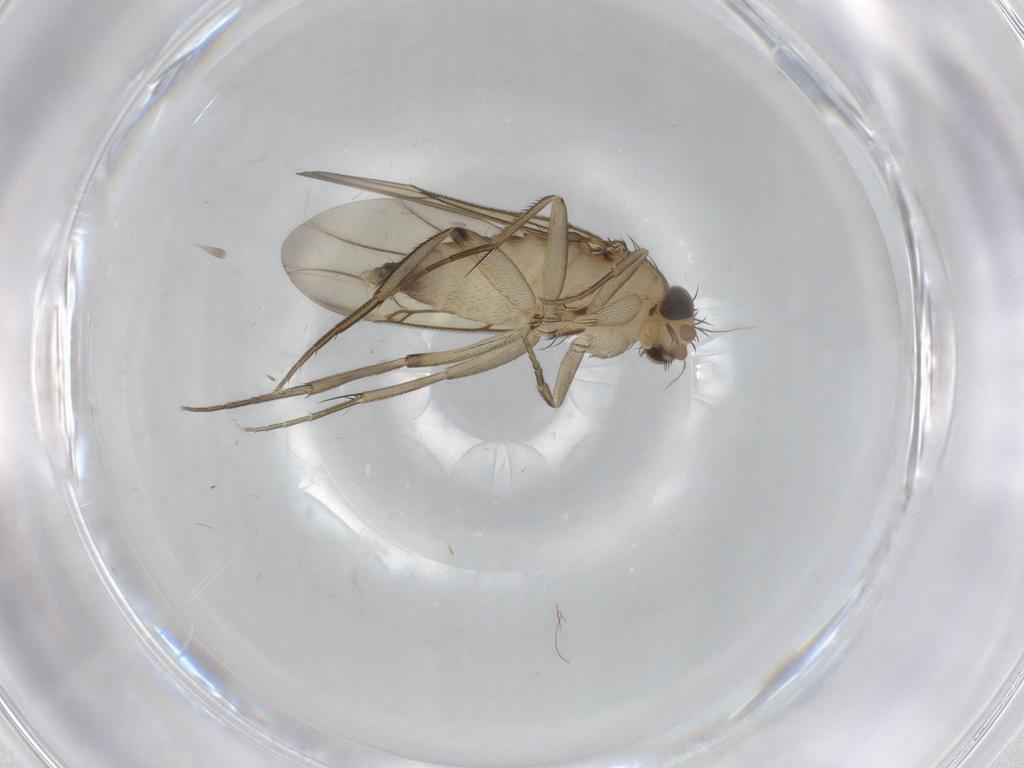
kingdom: Animalia
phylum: Arthropoda
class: Insecta
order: Diptera
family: Phoridae
